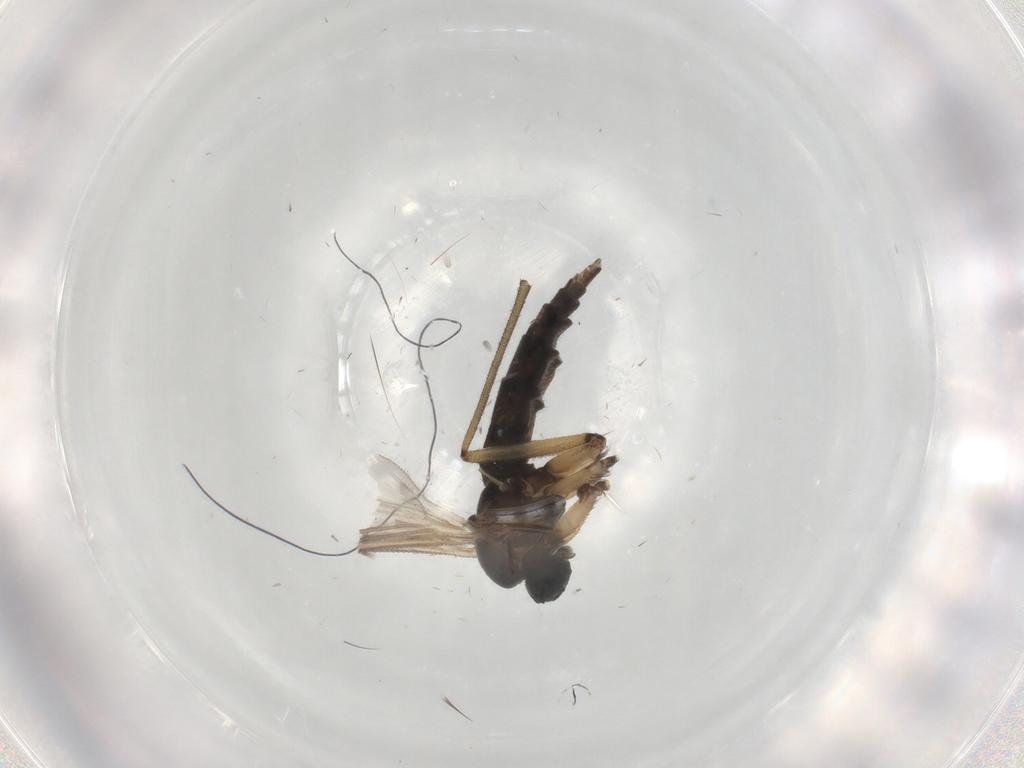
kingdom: Animalia
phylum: Arthropoda
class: Insecta
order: Diptera
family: Sciaridae
